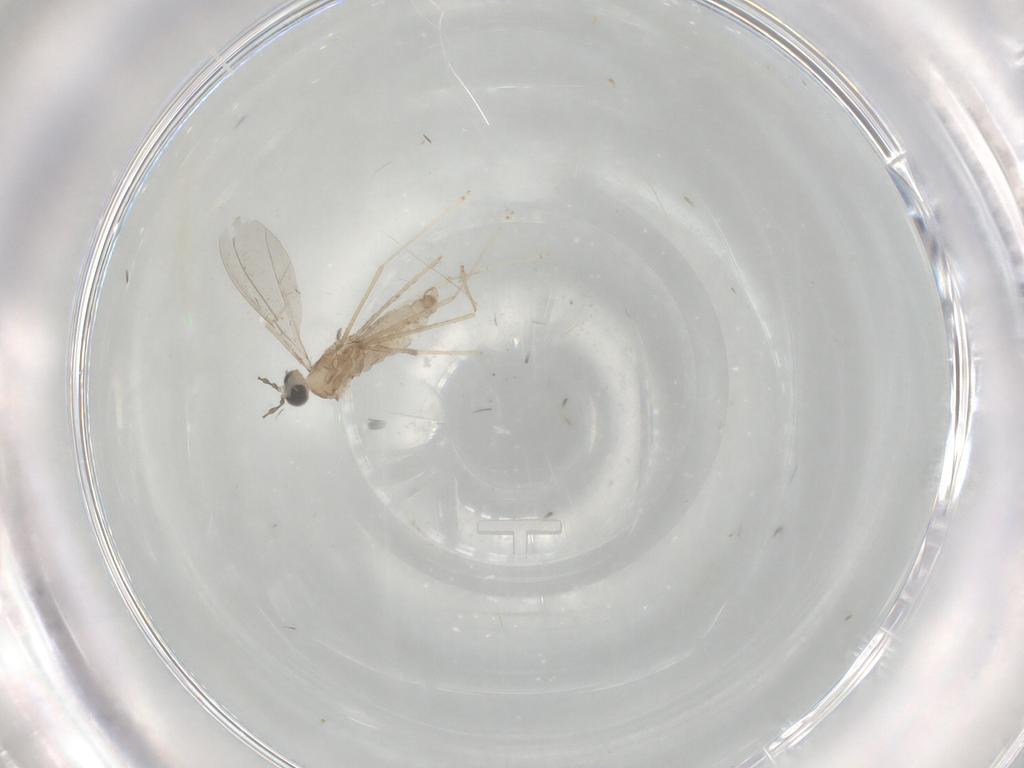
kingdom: Animalia
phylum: Arthropoda
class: Insecta
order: Diptera
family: Cecidomyiidae
